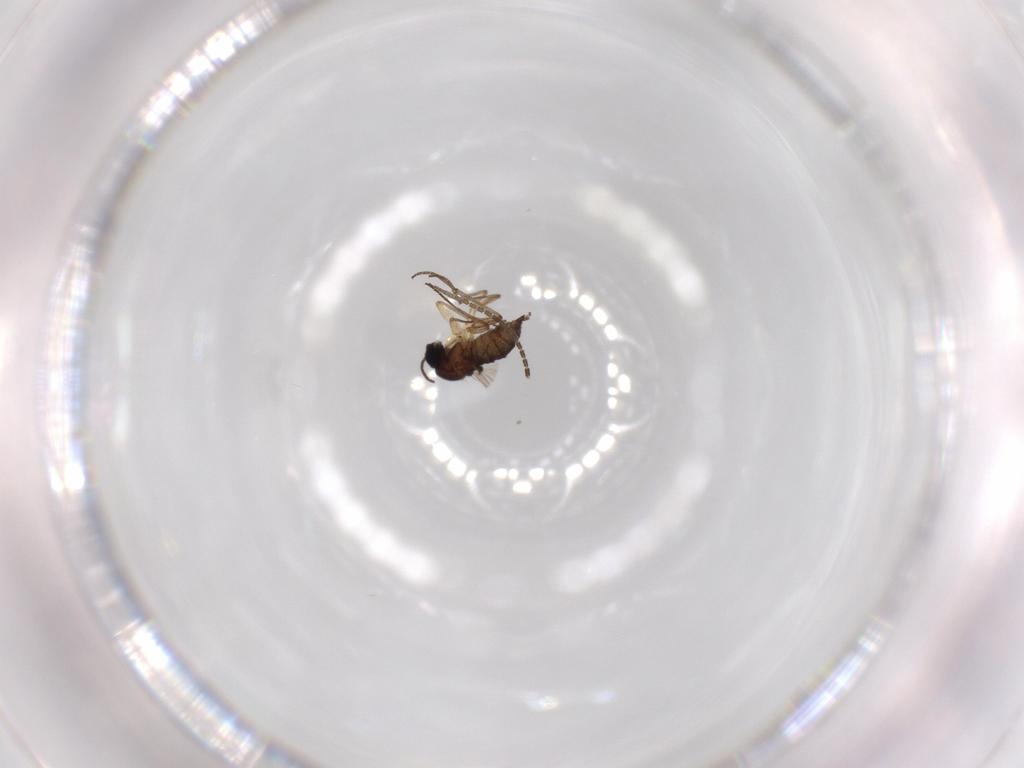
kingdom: Animalia
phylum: Arthropoda
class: Insecta
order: Diptera
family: Sciaridae
